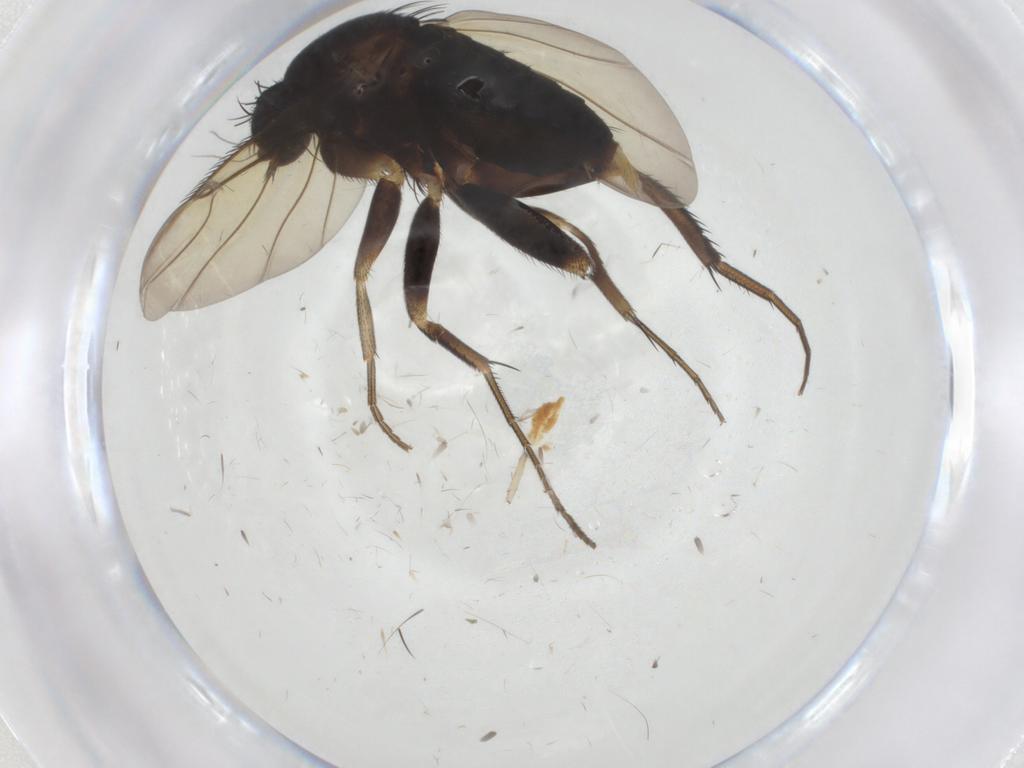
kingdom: Animalia
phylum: Arthropoda
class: Insecta
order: Diptera
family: Phoridae
